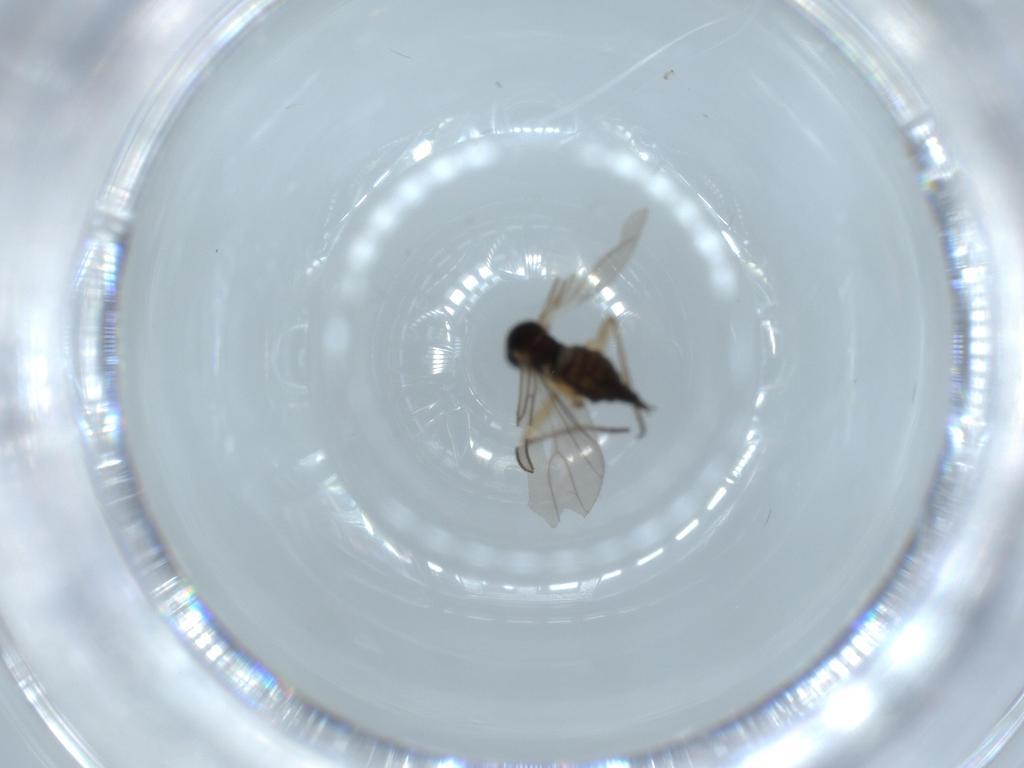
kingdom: Animalia
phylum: Arthropoda
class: Insecta
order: Diptera
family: Sciaridae
